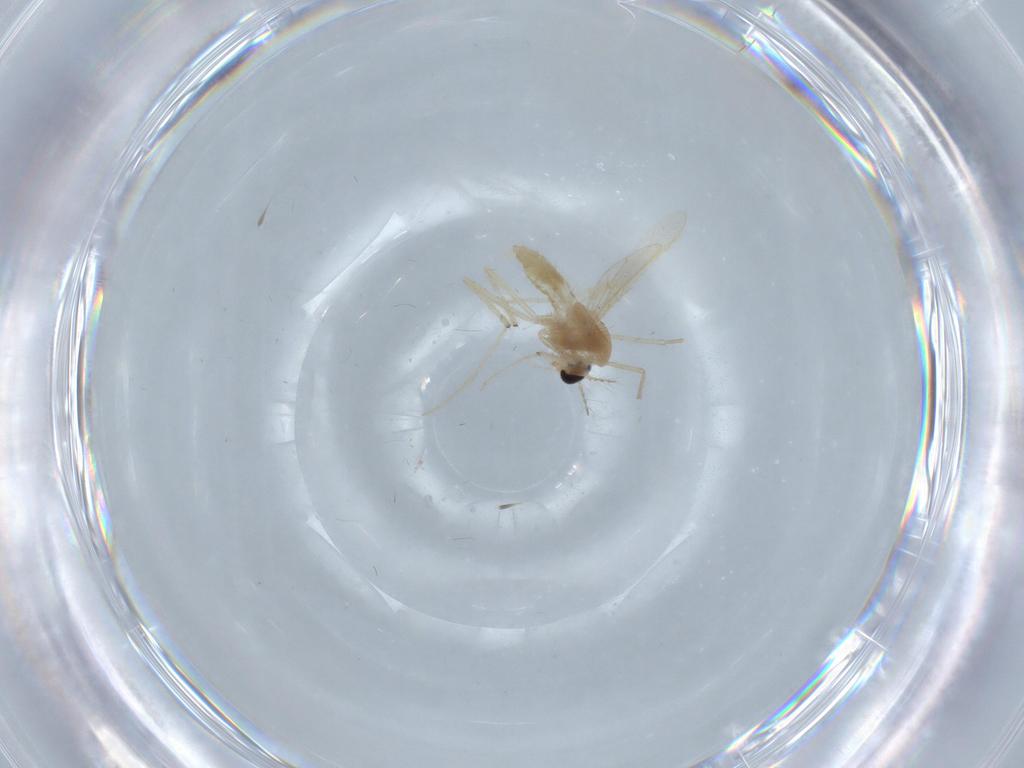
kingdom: Animalia
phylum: Arthropoda
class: Insecta
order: Diptera
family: Chironomidae
